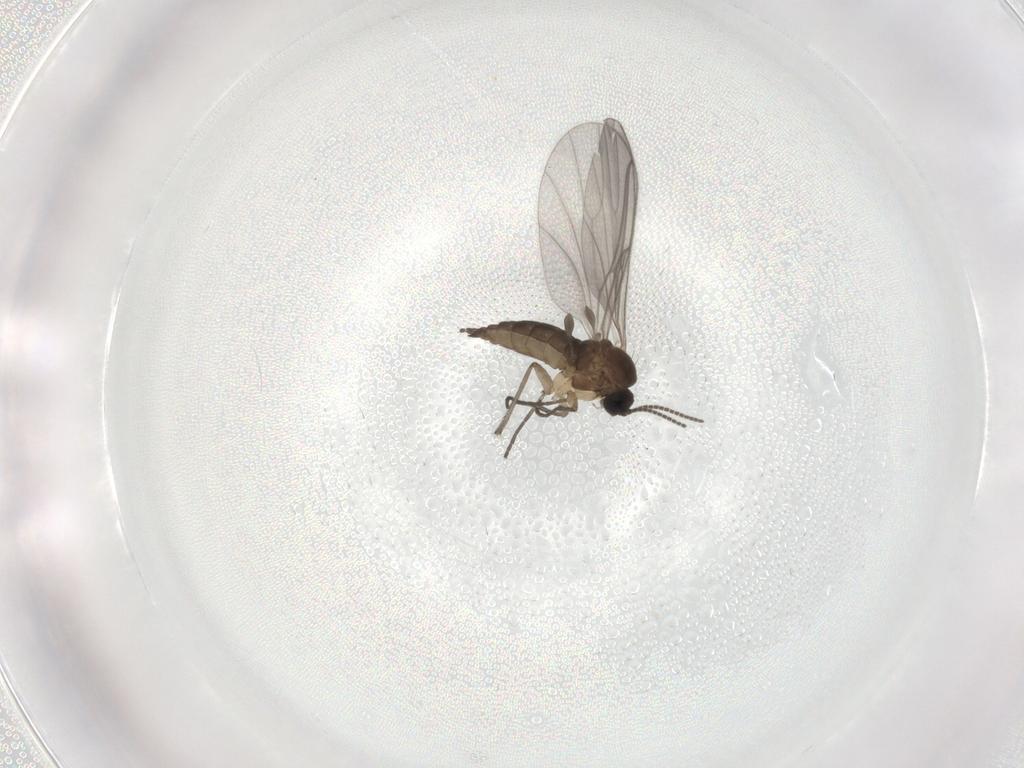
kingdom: Animalia
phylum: Arthropoda
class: Insecta
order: Diptera
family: Sciaridae
